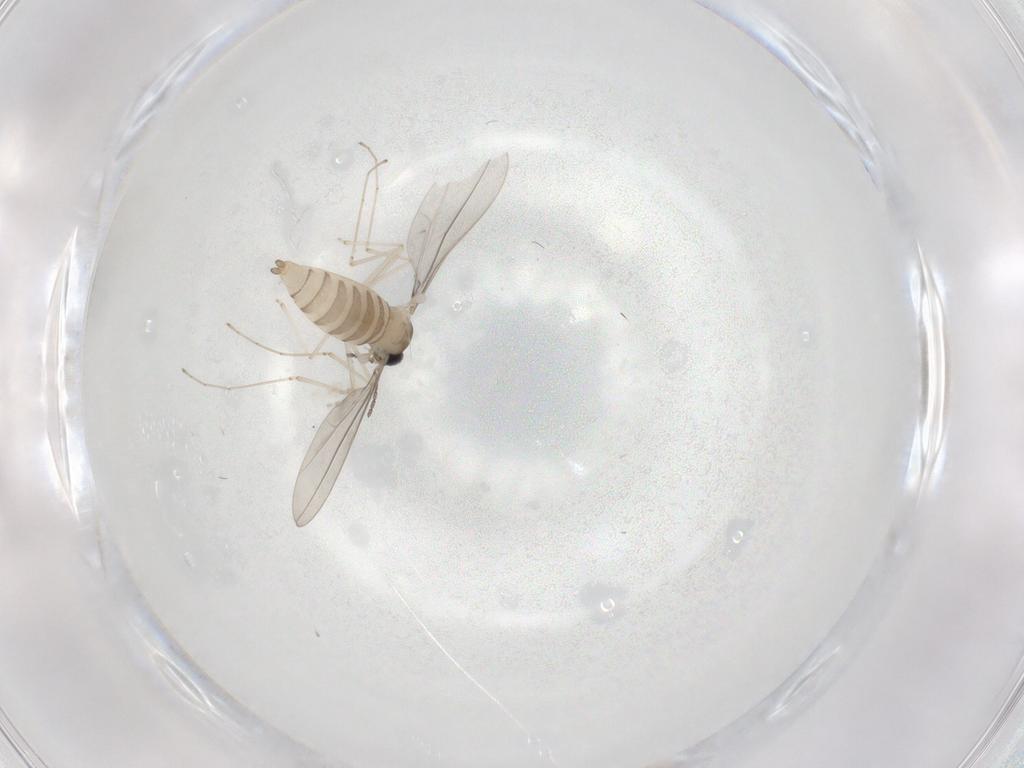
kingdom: Animalia
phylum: Arthropoda
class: Insecta
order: Diptera
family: Cecidomyiidae
